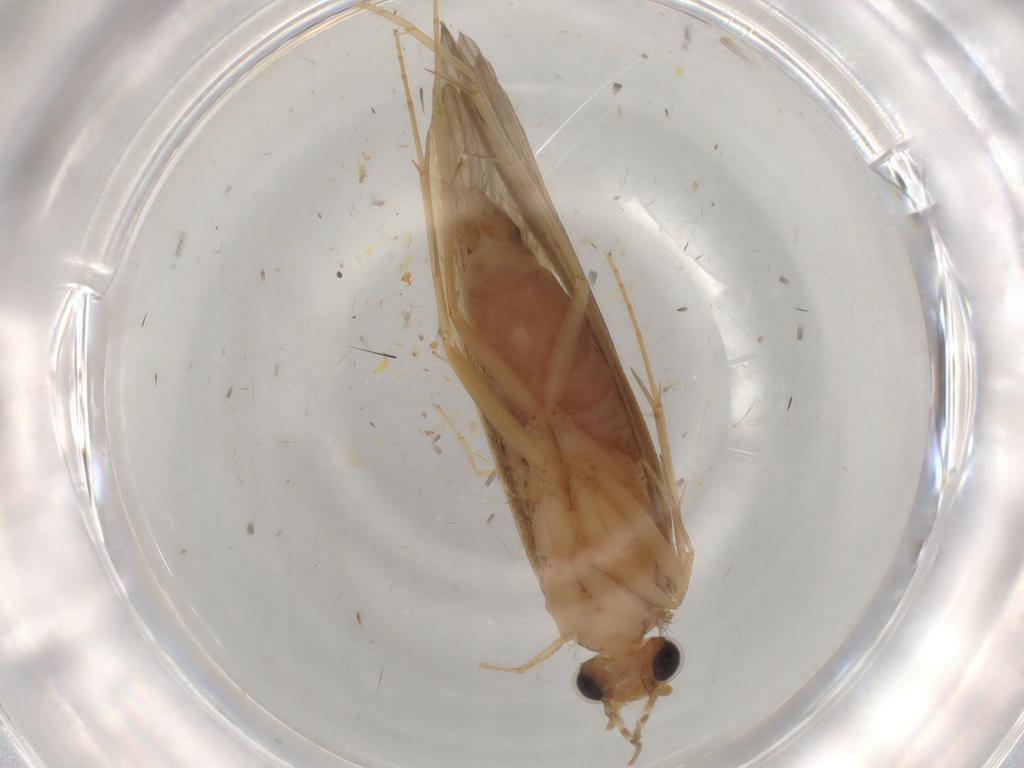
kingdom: Animalia
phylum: Arthropoda
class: Insecta
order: Trichoptera
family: Ecnomidae
